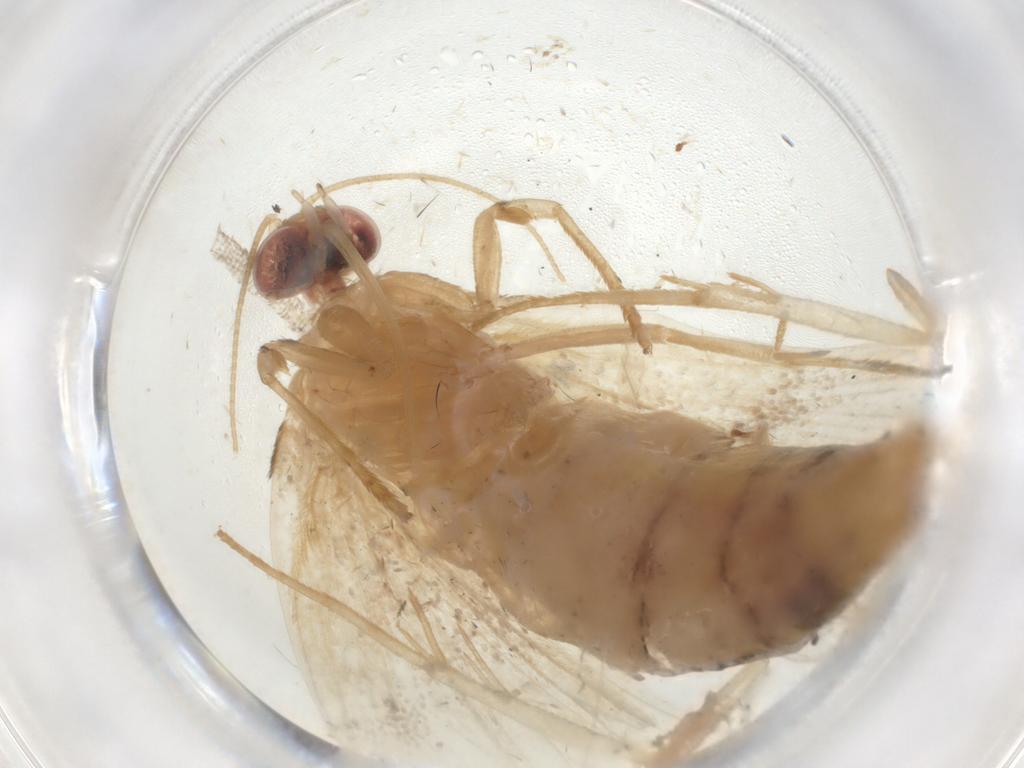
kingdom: Animalia
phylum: Arthropoda
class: Insecta
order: Lepidoptera
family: Erebidae
